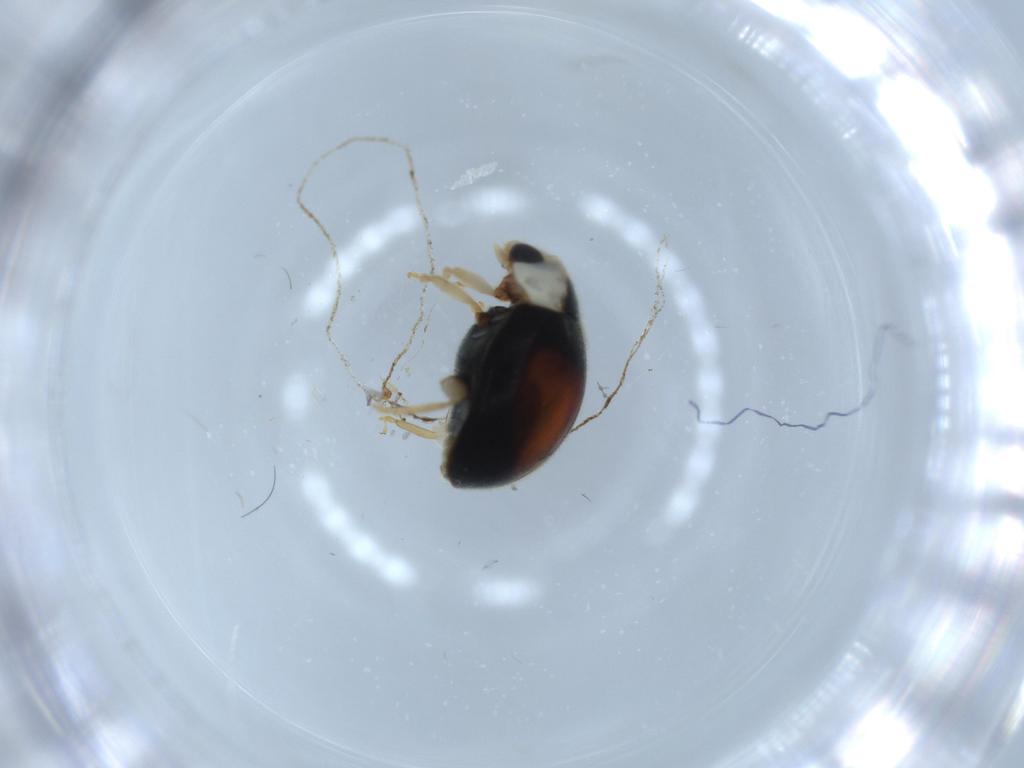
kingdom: Animalia
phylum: Arthropoda
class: Insecta
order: Coleoptera
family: Coccinellidae
